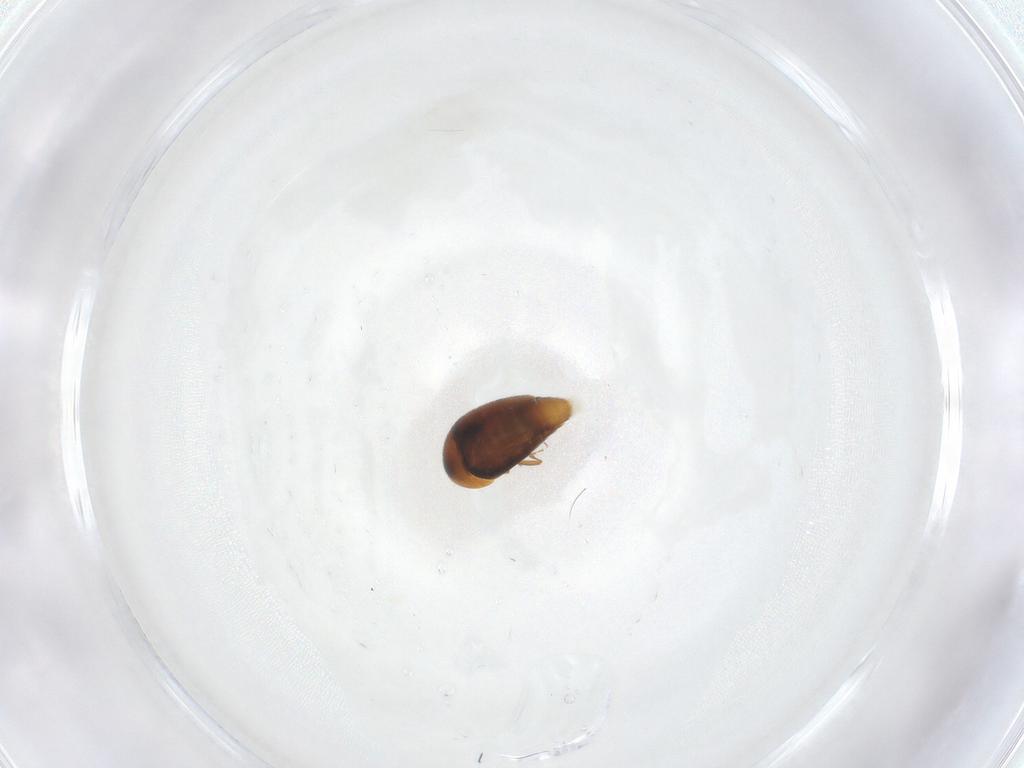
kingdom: Animalia
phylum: Arthropoda
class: Insecta
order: Coleoptera
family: Corylophidae
